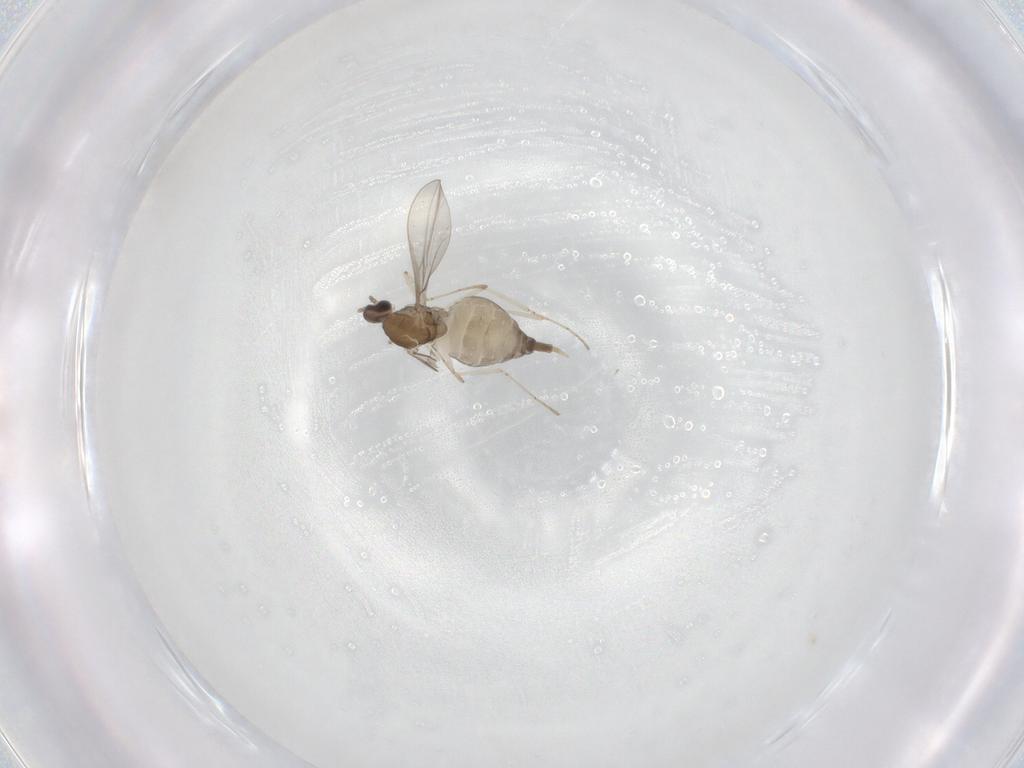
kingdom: Animalia
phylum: Arthropoda
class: Insecta
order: Diptera
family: Cecidomyiidae
